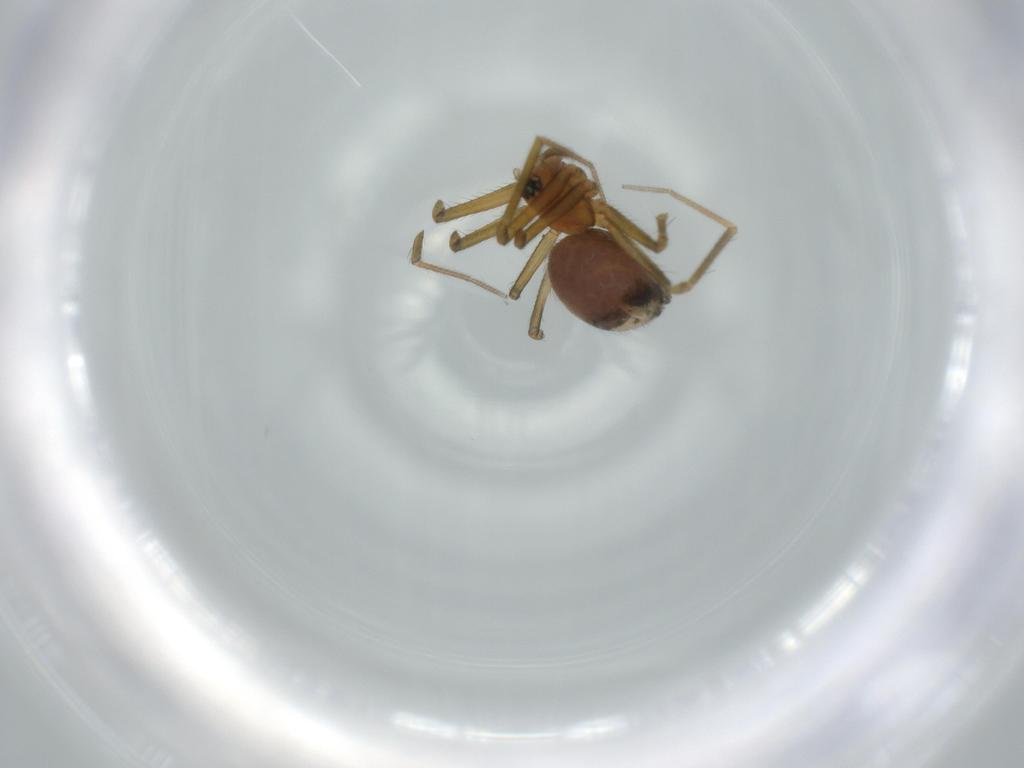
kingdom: Animalia
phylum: Arthropoda
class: Arachnida
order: Araneae
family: Linyphiidae
